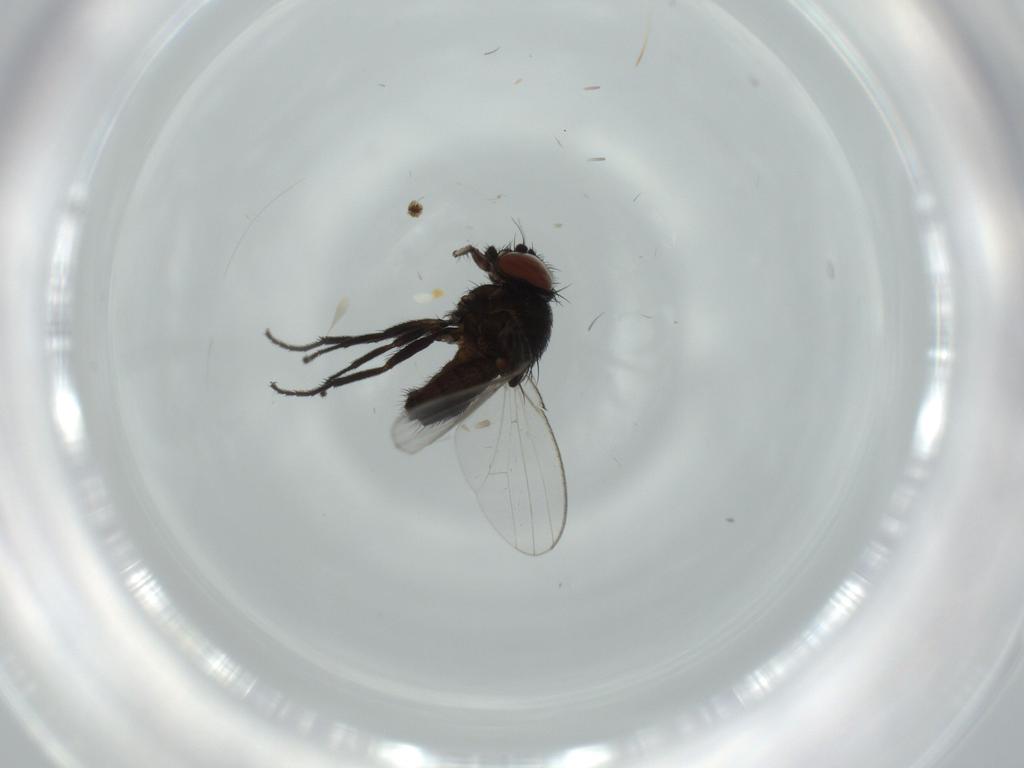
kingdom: Animalia
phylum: Arthropoda
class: Insecta
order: Diptera
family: Milichiidae
